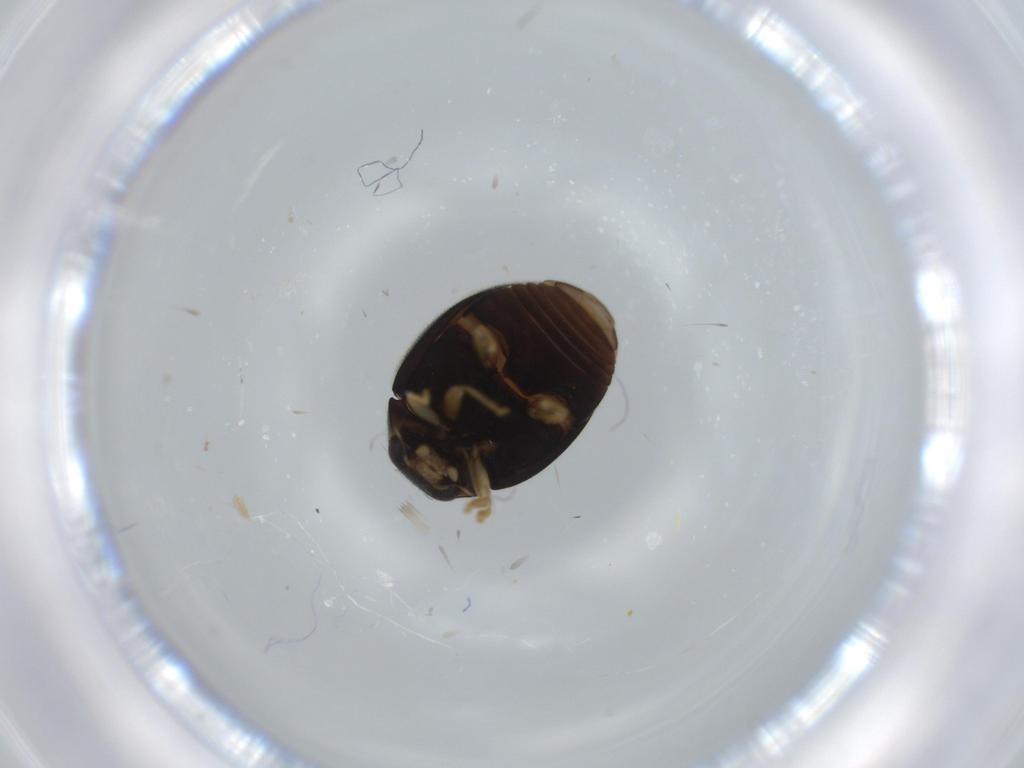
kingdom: Animalia
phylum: Arthropoda
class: Insecta
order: Coleoptera
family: Coccinellidae
